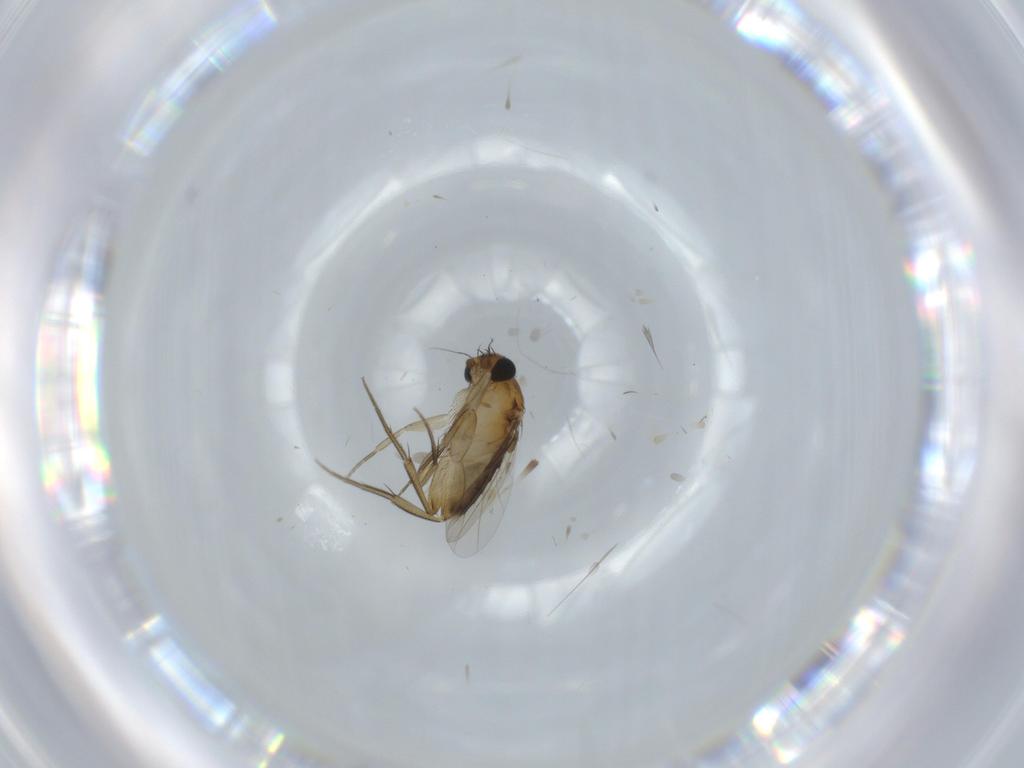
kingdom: Animalia
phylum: Arthropoda
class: Insecta
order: Diptera
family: Phoridae
